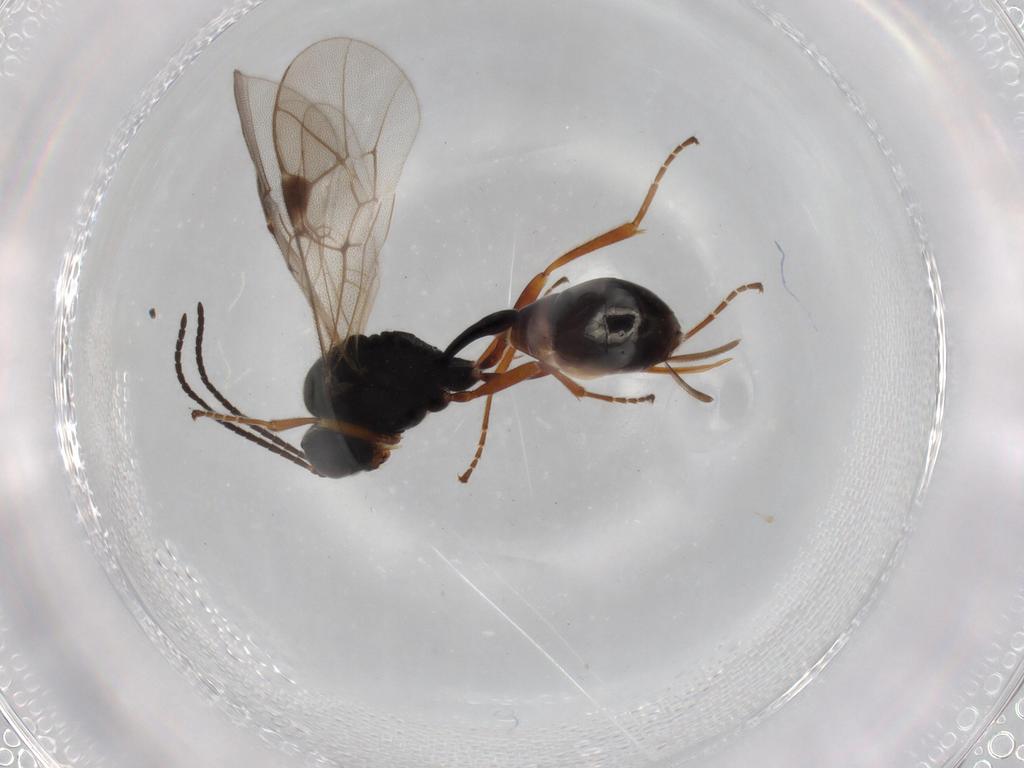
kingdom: Animalia
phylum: Arthropoda
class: Insecta
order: Hymenoptera
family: Ichneumonidae
